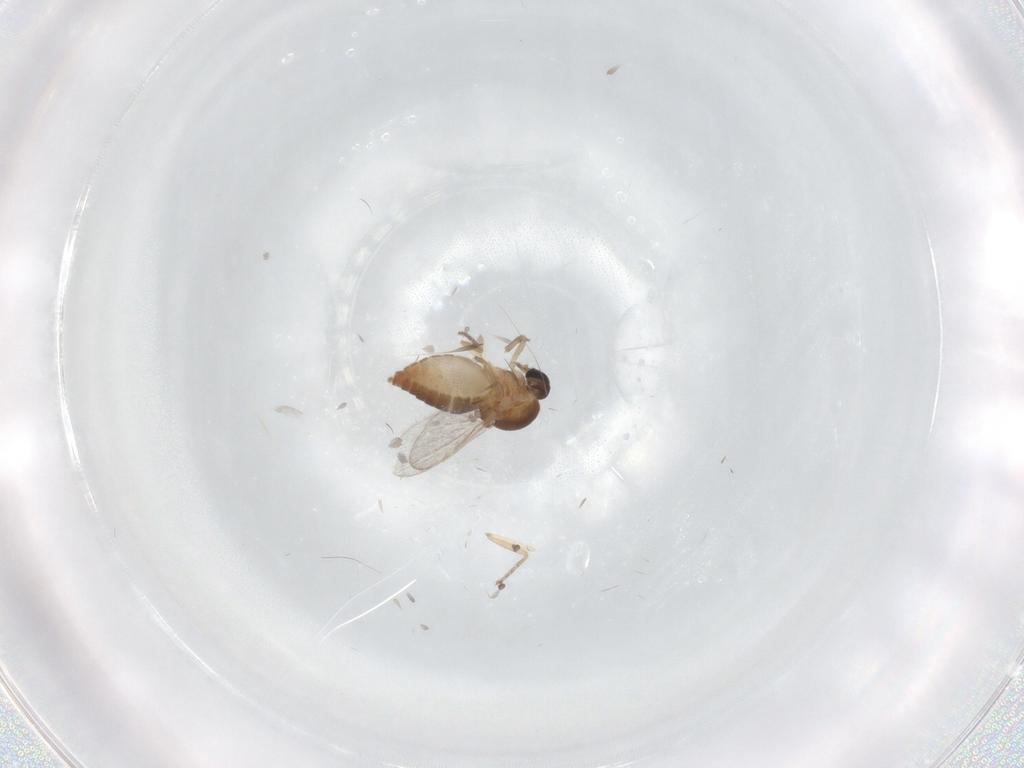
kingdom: Animalia
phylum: Arthropoda
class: Insecta
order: Diptera
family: Ceratopogonidae
